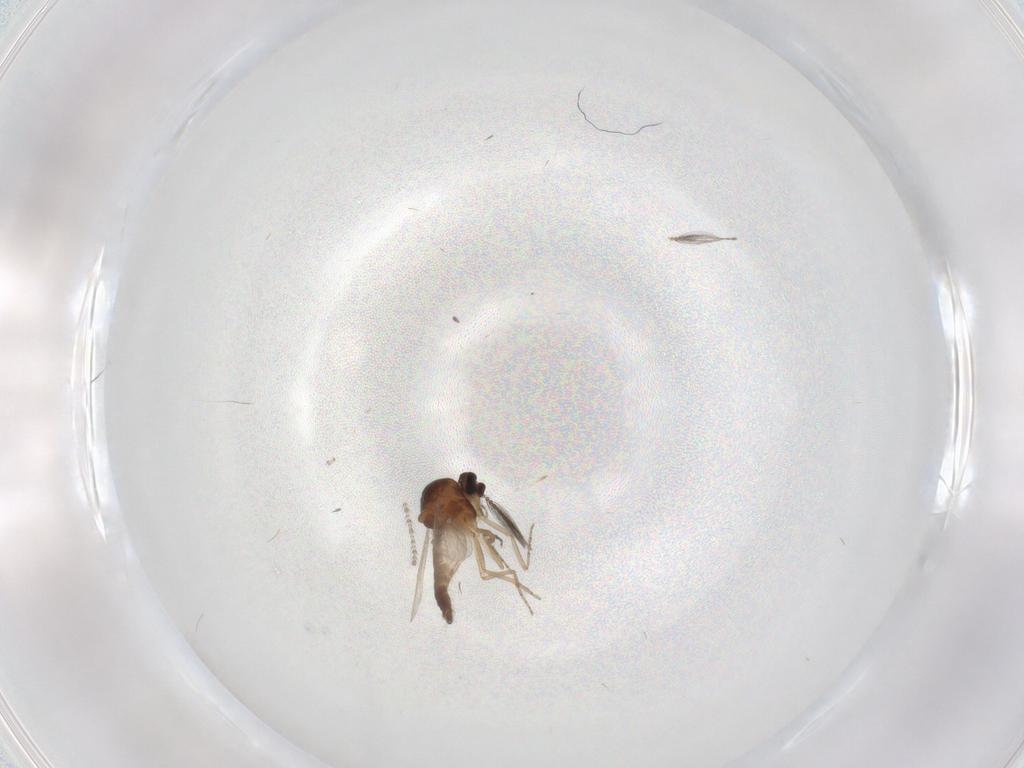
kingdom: Animalia
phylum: Arthropoda
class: Insecta
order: Diptera
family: Ceratopogonidae
